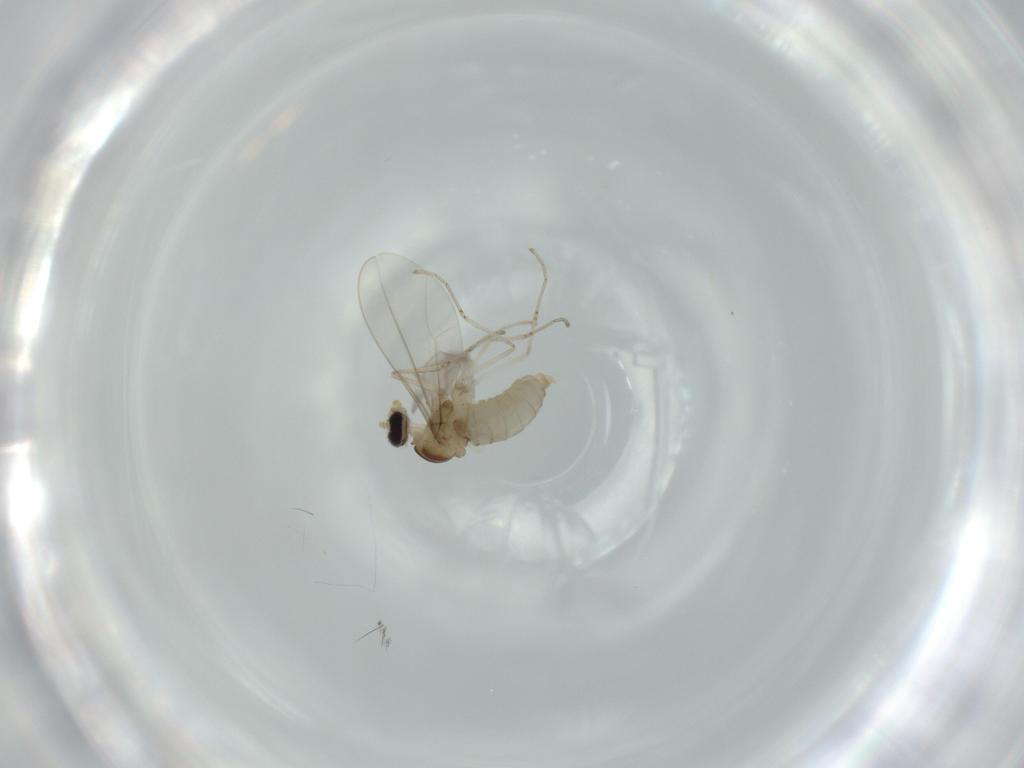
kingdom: Animalia
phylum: Arthropoda
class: Insecta
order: Diptera
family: Cecidomyiidae
